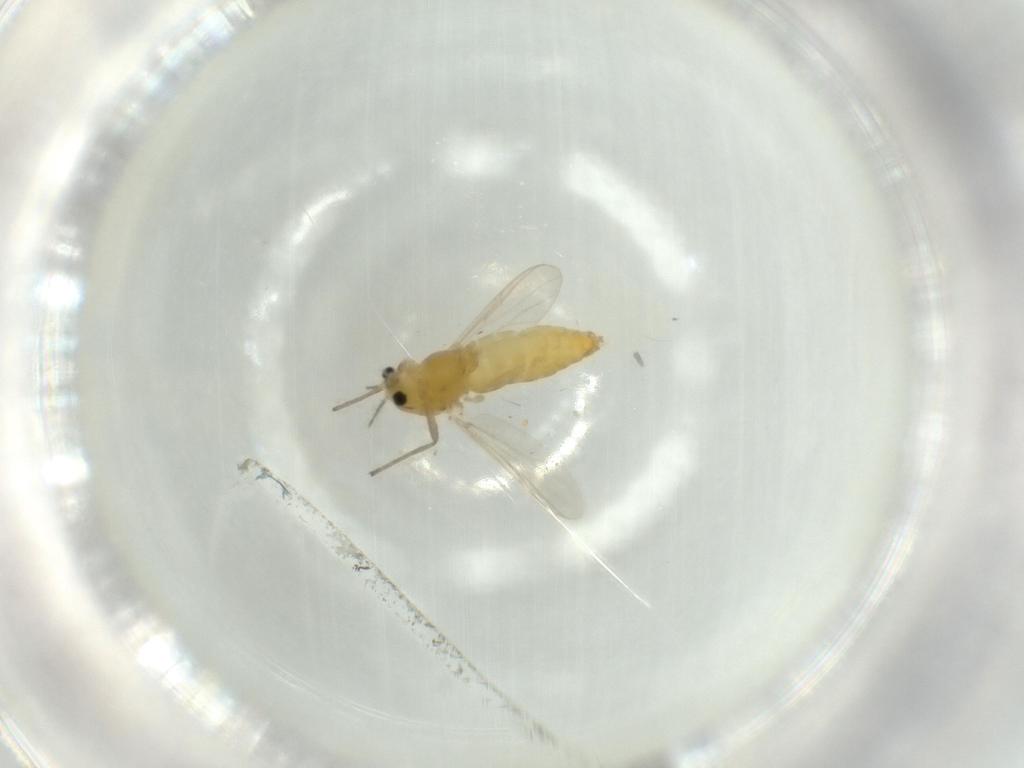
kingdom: Animalia
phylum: Arthropoda
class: Insecta
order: Diptera
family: Chironomidae
